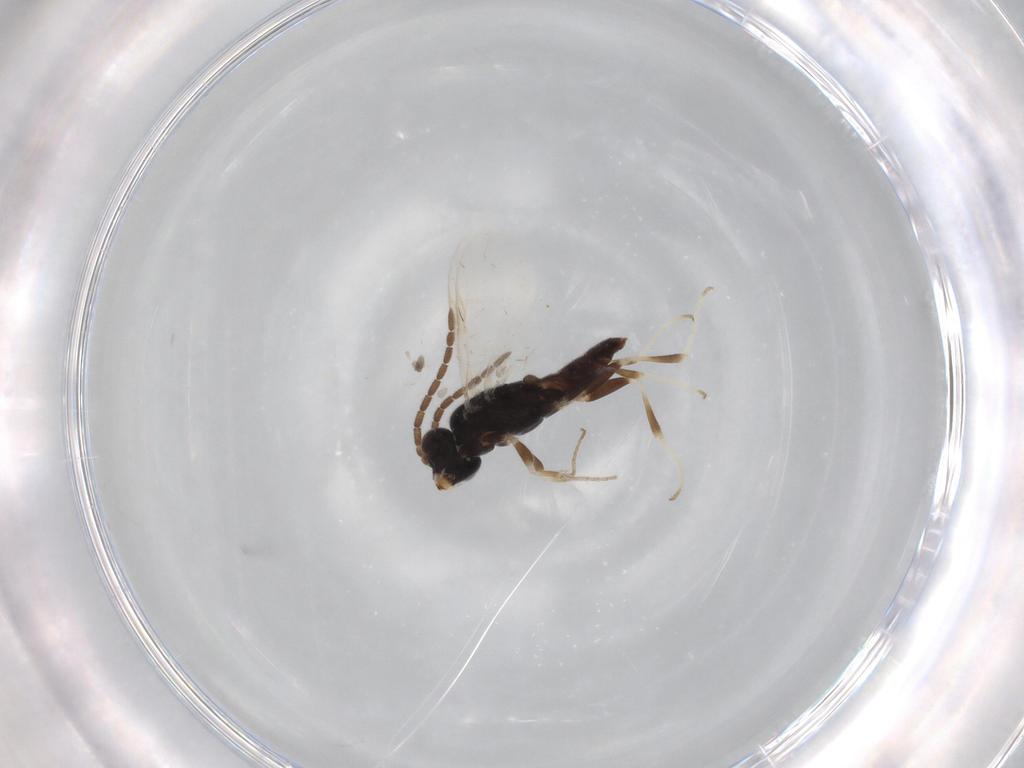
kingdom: Animalia
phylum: Arthropoda
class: Insecta
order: Hymenoptera
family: Dryinidae
